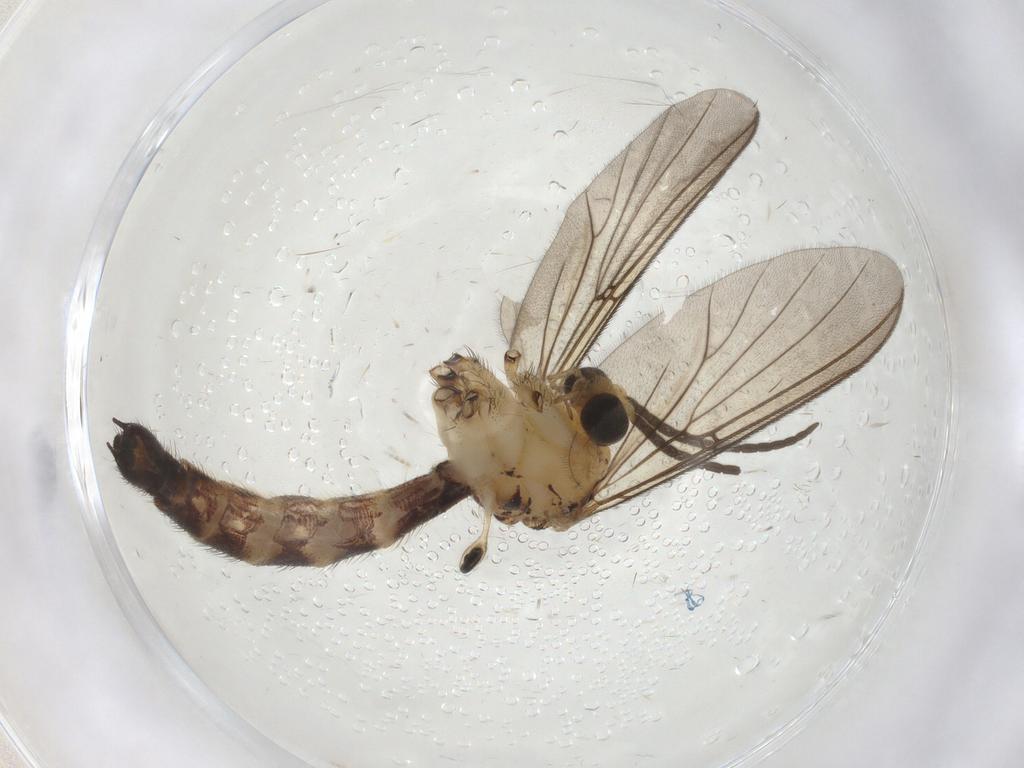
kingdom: Animalia
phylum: Arthropoda
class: Insecta
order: Diptera
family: Mycetophilidae
